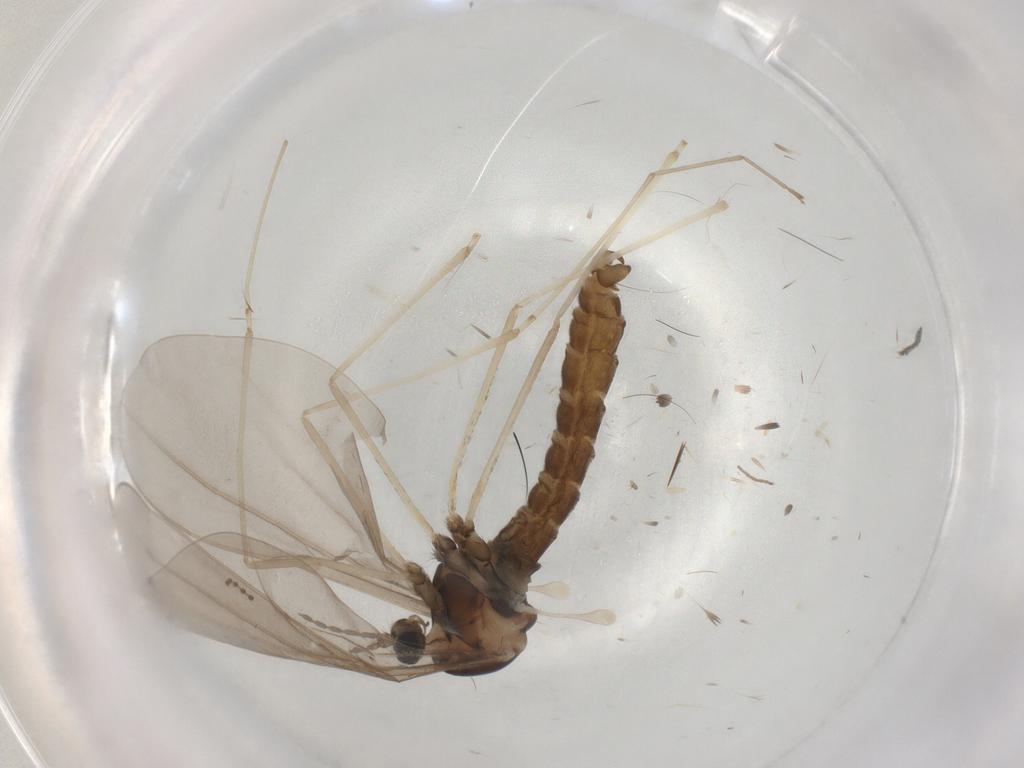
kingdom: Animalia
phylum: Arthropoda
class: Insecta
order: Diptera
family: Cecidomyiidae
